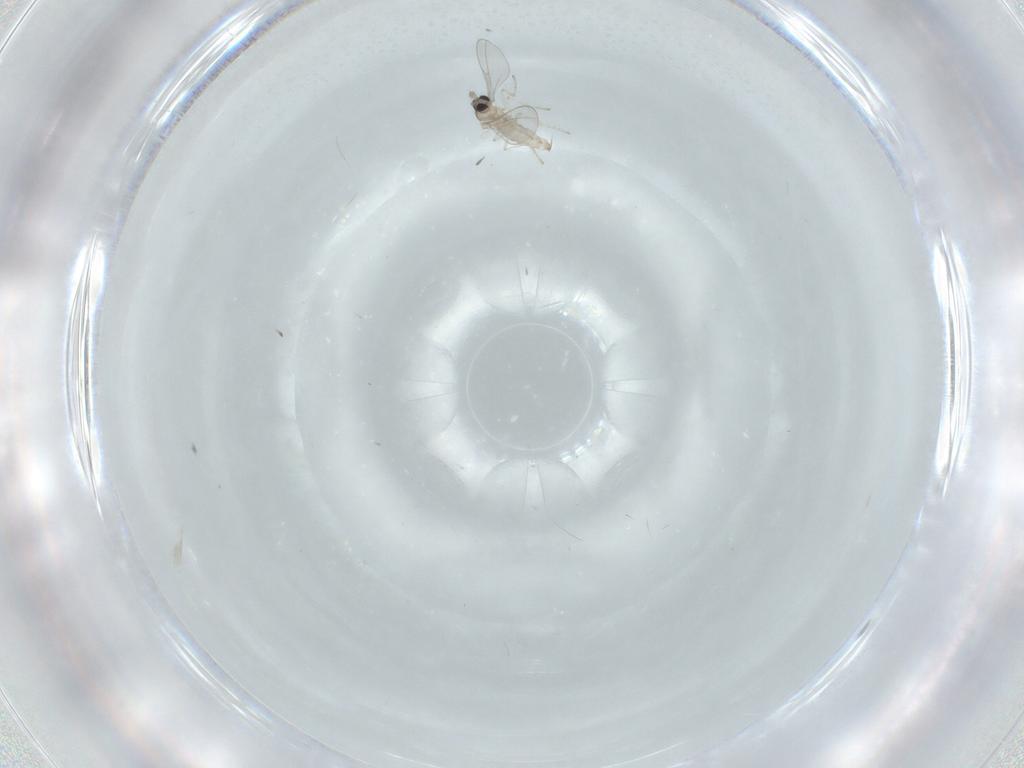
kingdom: Animalia
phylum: Arthropoda
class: Insecta
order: Diptera
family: Cecidomyiidae
